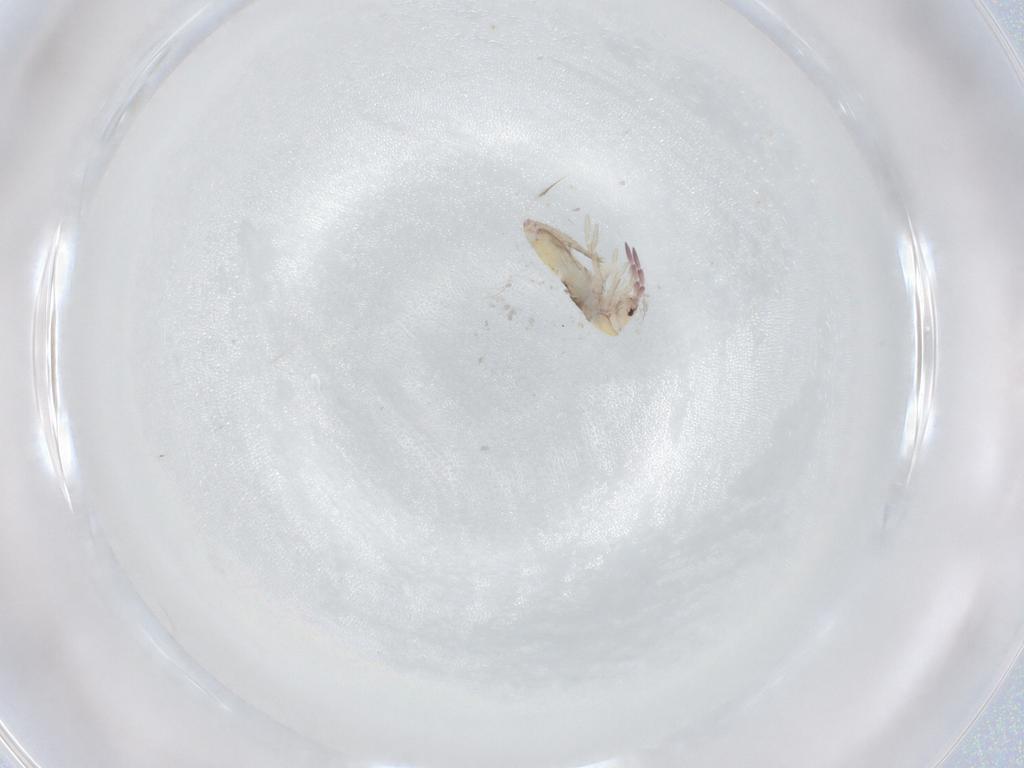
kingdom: Animalia
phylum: Arthropoda
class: Collembola
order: Entomobryomorpha
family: Entomobryidae
